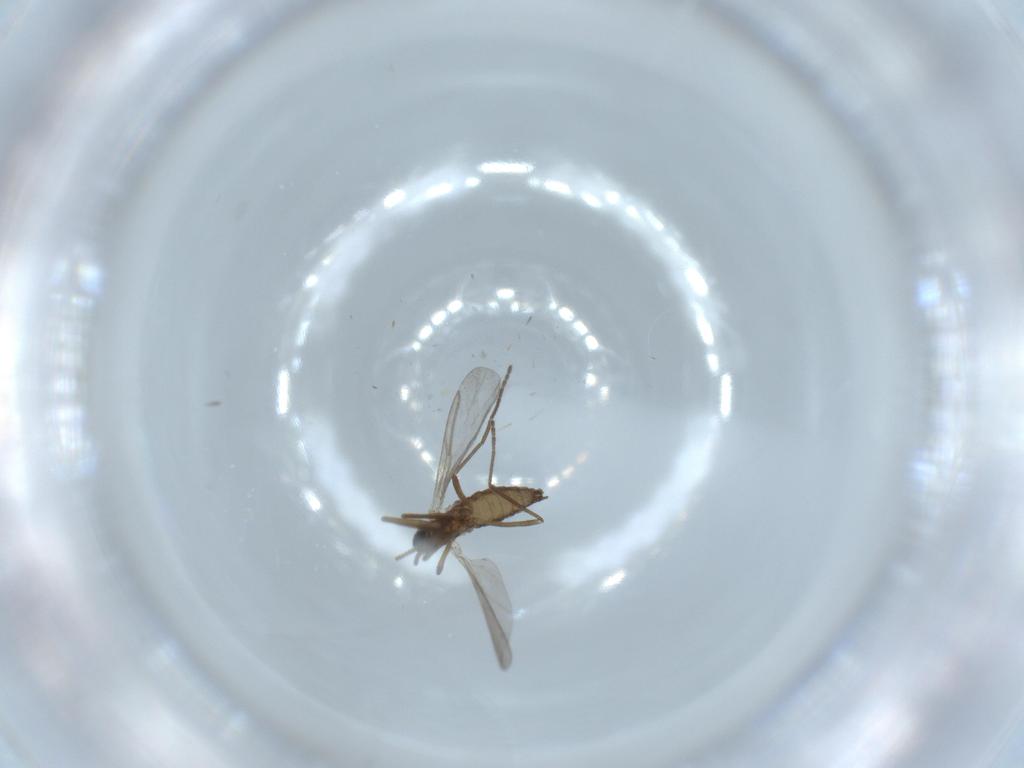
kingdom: Animalia
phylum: Arthropoda
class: Insecta
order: Diptera
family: Cecidomyiidae
